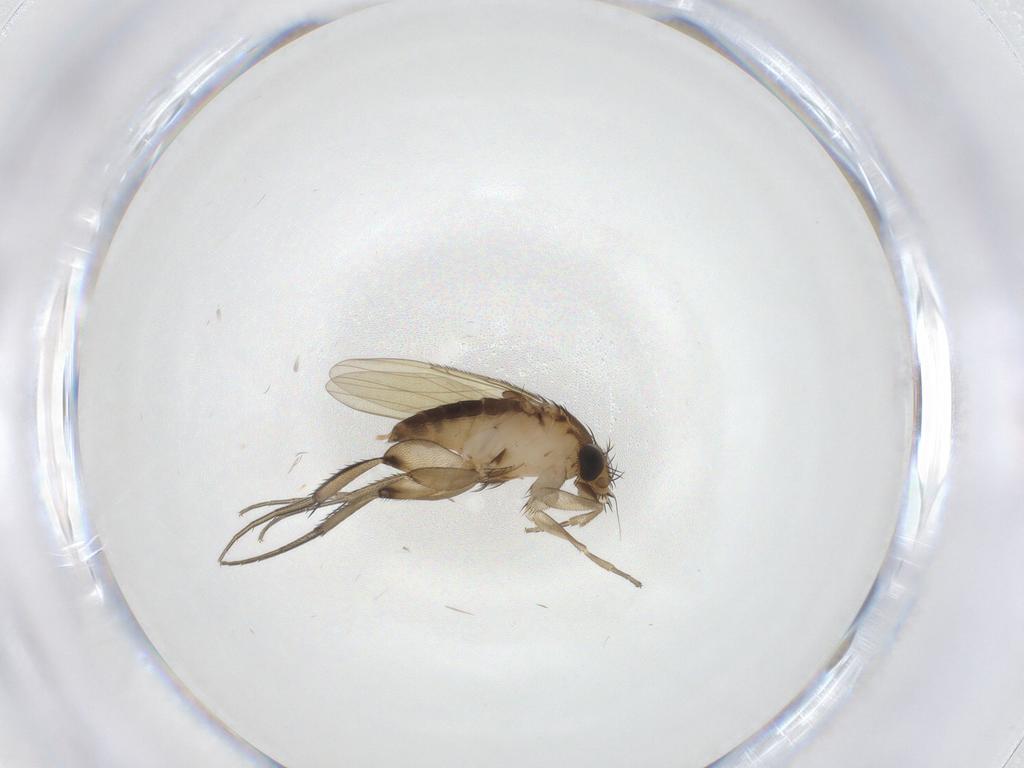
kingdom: Animalia
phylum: Arthropoda
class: Insecta
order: Diptera
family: Phoridae
